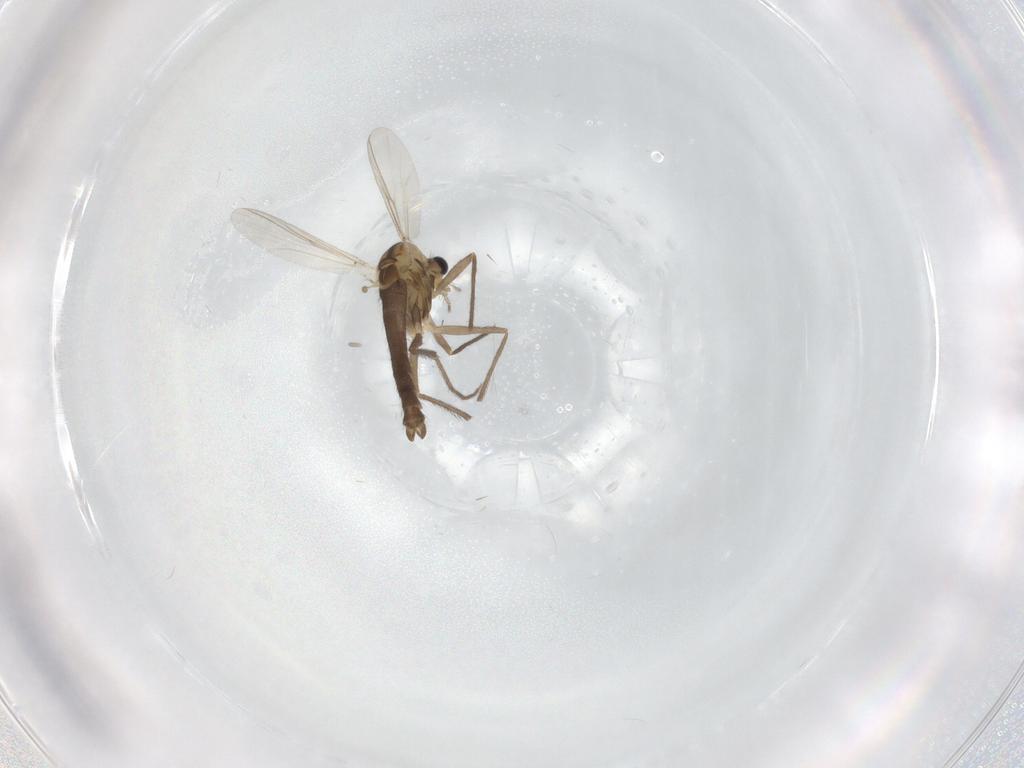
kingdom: Animalia
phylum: Arthropoda
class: Insecta
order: Diptera
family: Chironomidae
